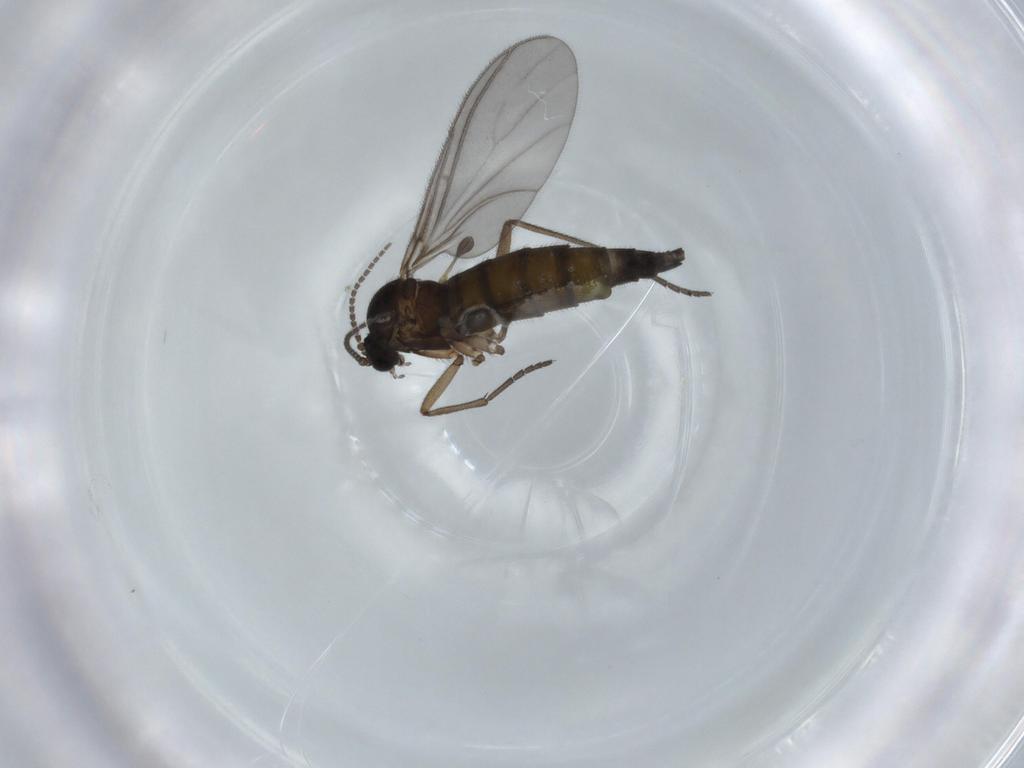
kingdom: Animalia
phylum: Arthropoda
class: Insecta
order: Diptera
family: Sciaridae
